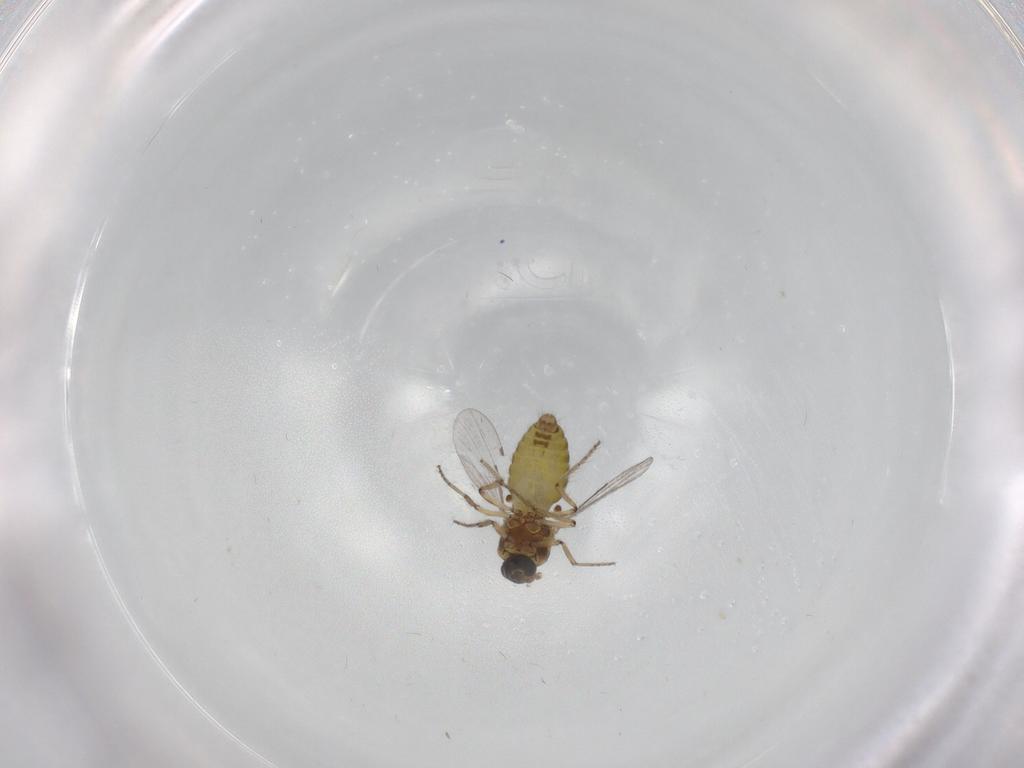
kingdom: Animalia
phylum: Arthropoda
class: Insecta
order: Diptera
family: Ceratopogonidae
